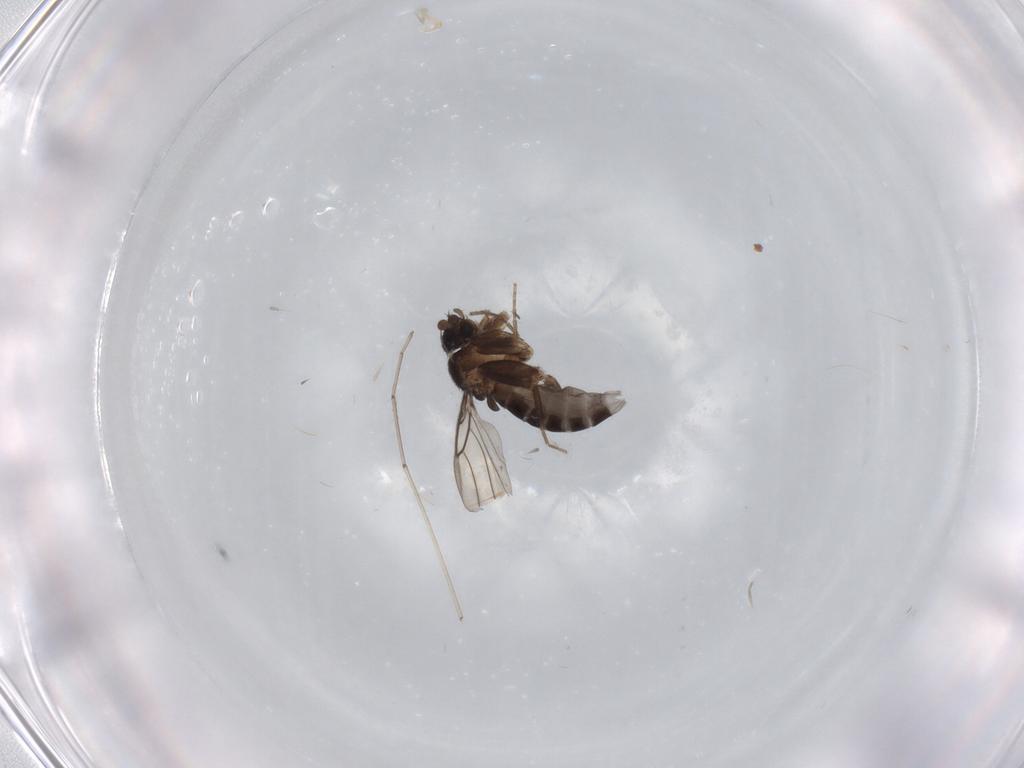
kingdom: Animalia
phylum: Arthropoda
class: Insecta
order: Diptera
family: Phoridae
